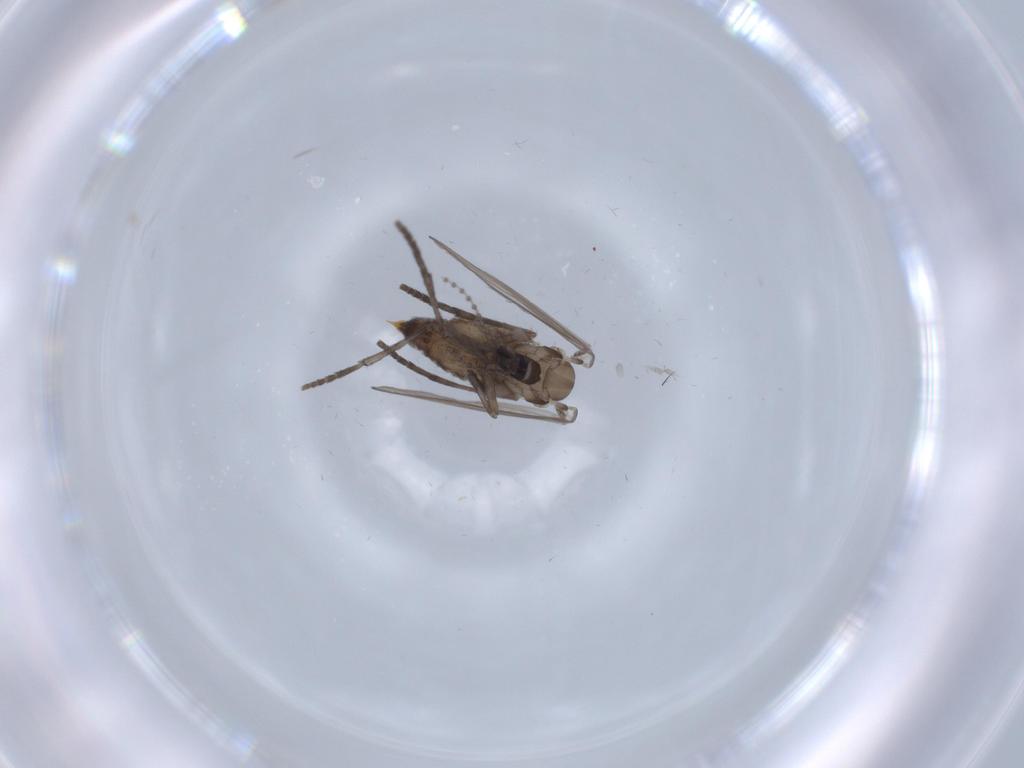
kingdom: Animalia
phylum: Arthropoda
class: Insecta
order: Diptera
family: Psychodidae
